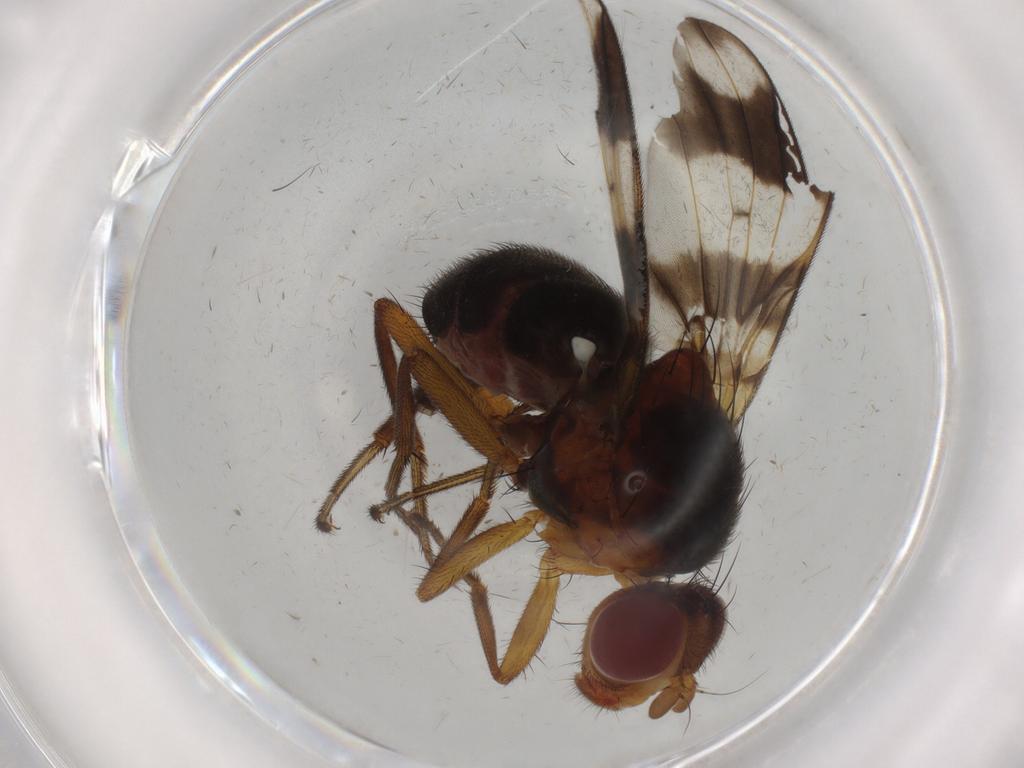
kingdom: Animalia
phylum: Arthropoda
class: Insecta
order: Diptera
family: Richardiidae
